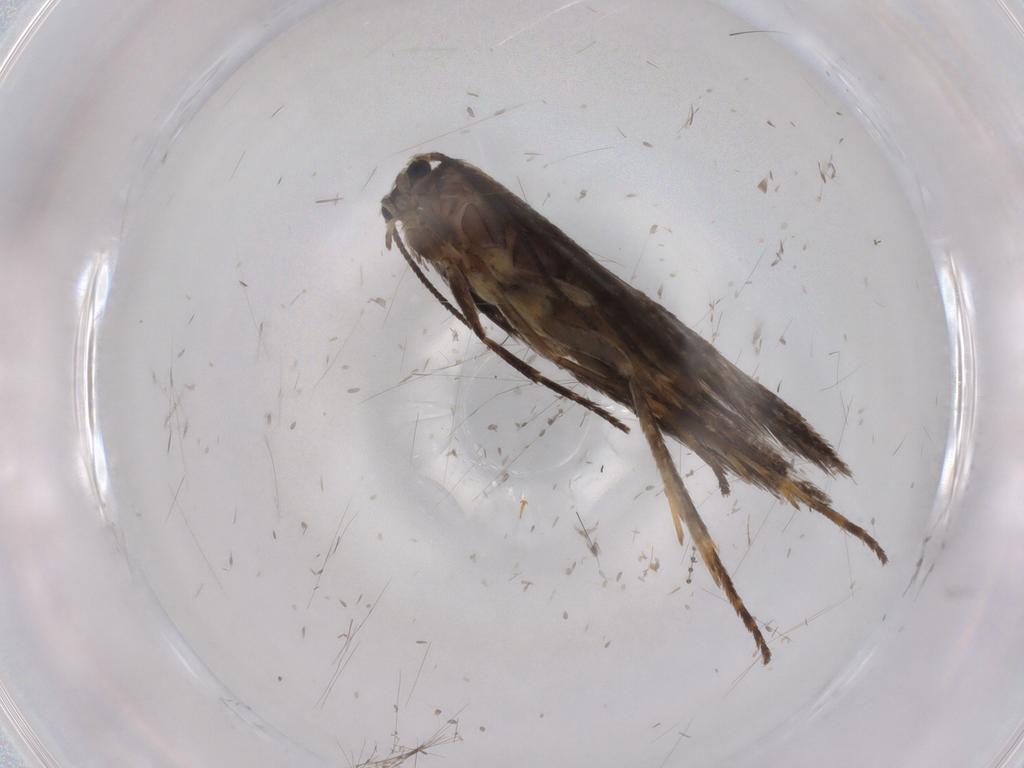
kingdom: Animalia
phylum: Arthropoda
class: Insecta
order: Lepidoptera
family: Nepticulidae
